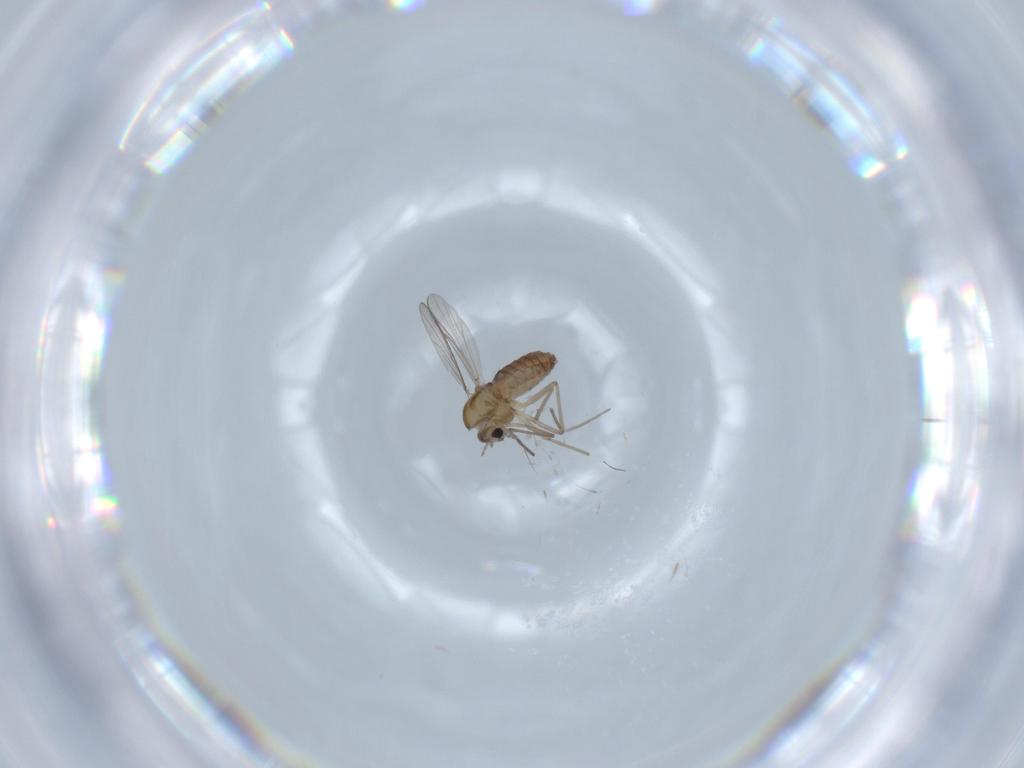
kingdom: Animalia
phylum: Arthropoda
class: Insecta
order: Diptera
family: Chironomidae
